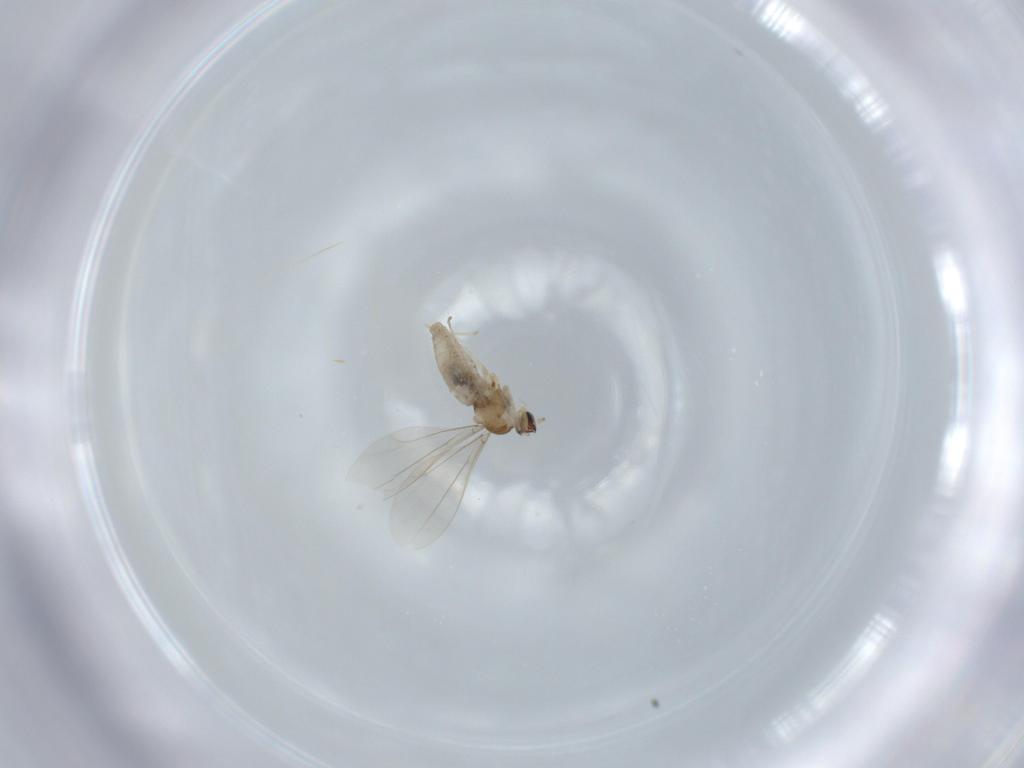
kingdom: Animalia
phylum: Arthropoda
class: Insecta
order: Diptera
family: Cecidomyiidae
